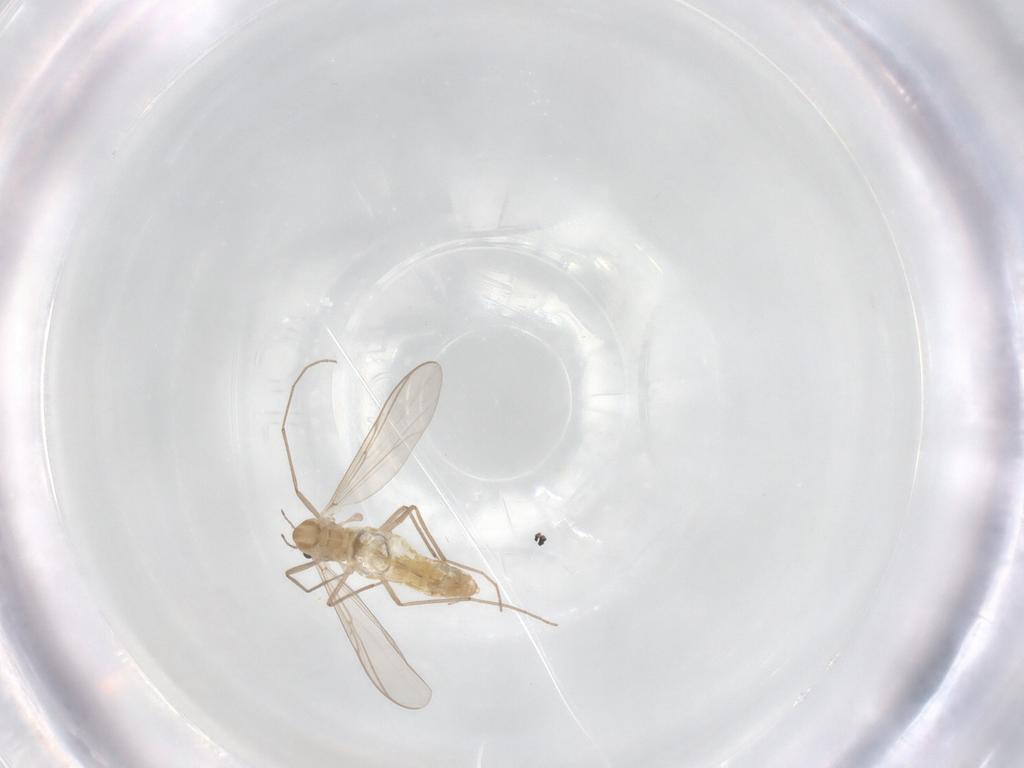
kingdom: Animalia
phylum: Arthropoda
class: Insecta
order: Diptera
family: Chironomidae
